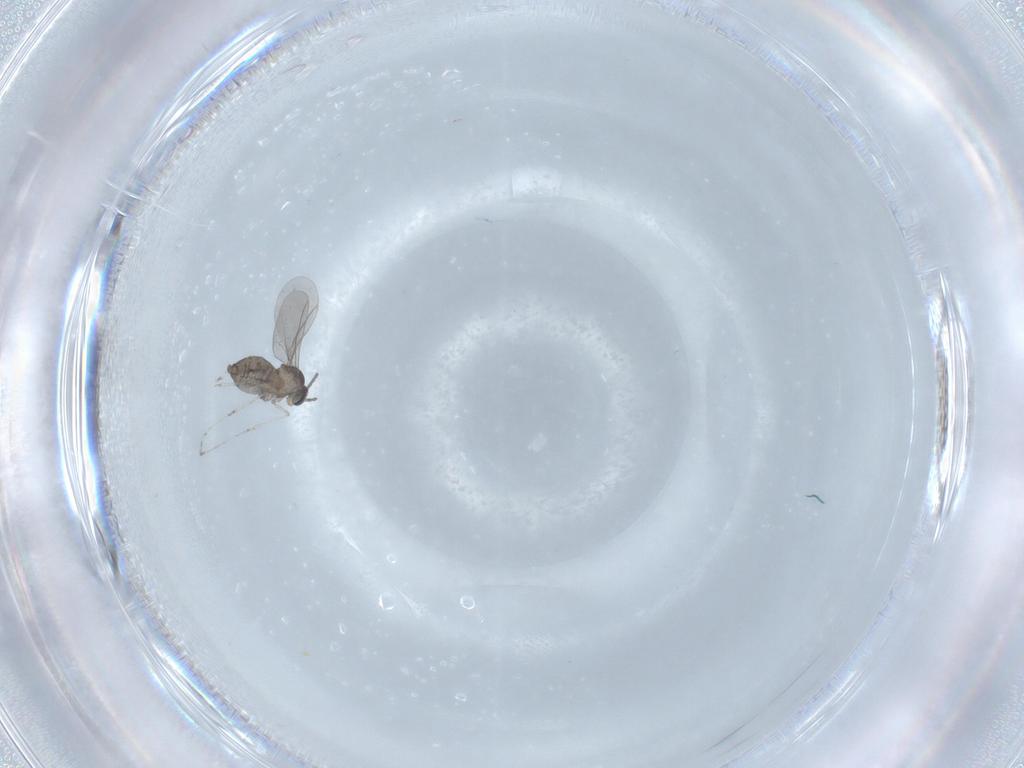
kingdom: Animalia
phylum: Arthropoda
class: Insecta
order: Diptera
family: Cecidomyiidae
